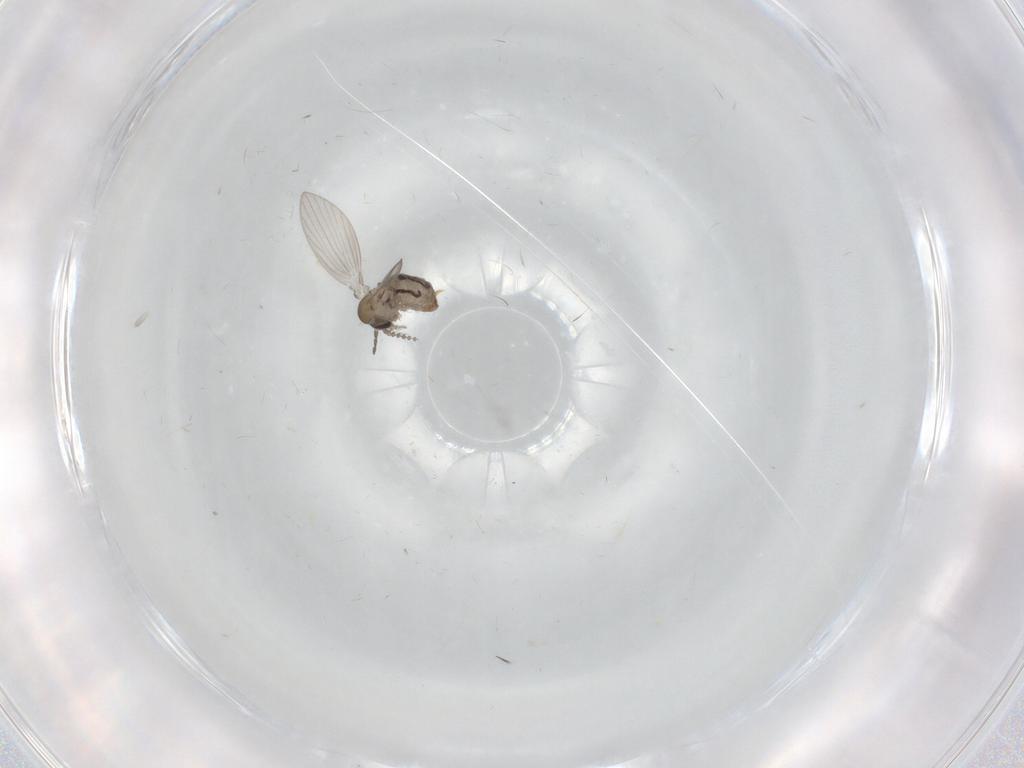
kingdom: Animalia
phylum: Arthropoda
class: Insecta
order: Diptera
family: Psychodidae
